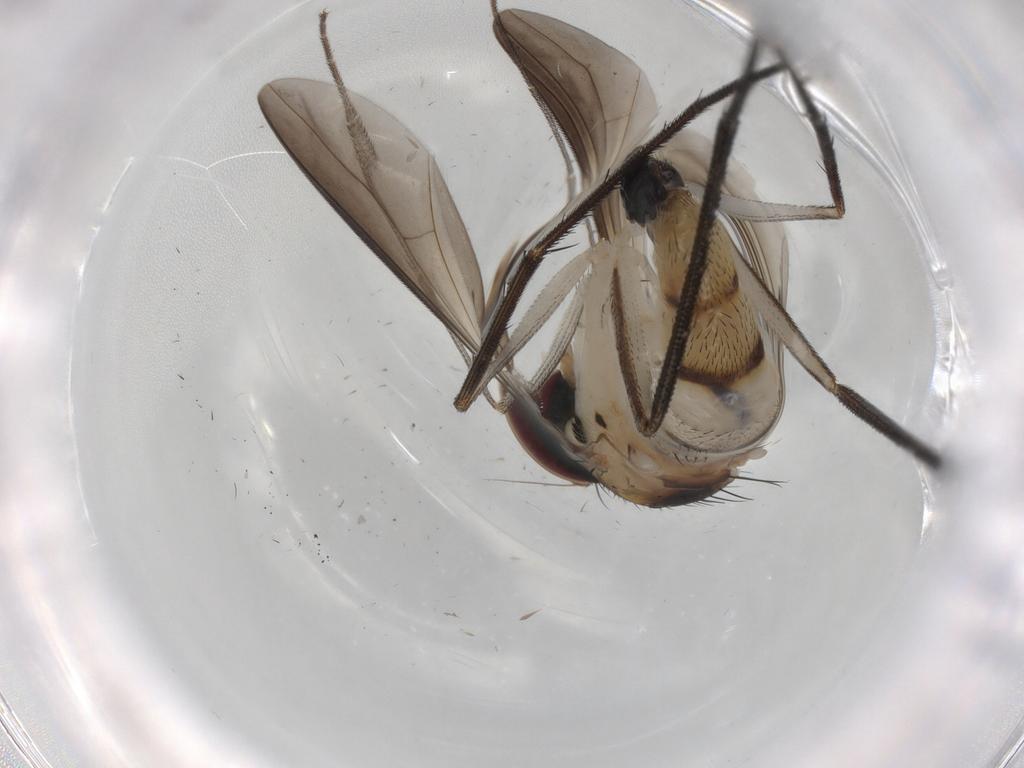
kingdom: Animalia
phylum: Arthropoda
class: Insecta
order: Diptera
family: Dolichopodidae
